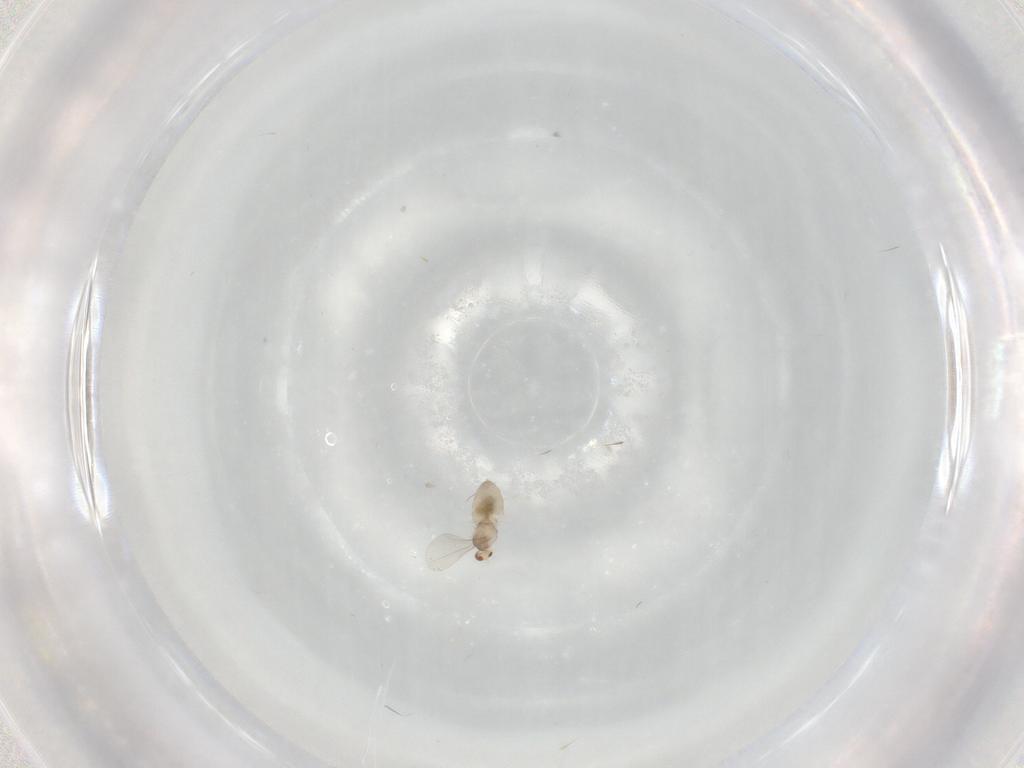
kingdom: Animalia
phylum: Arthropoda
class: Insecta
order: Diptera
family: Cecidomyiidae
